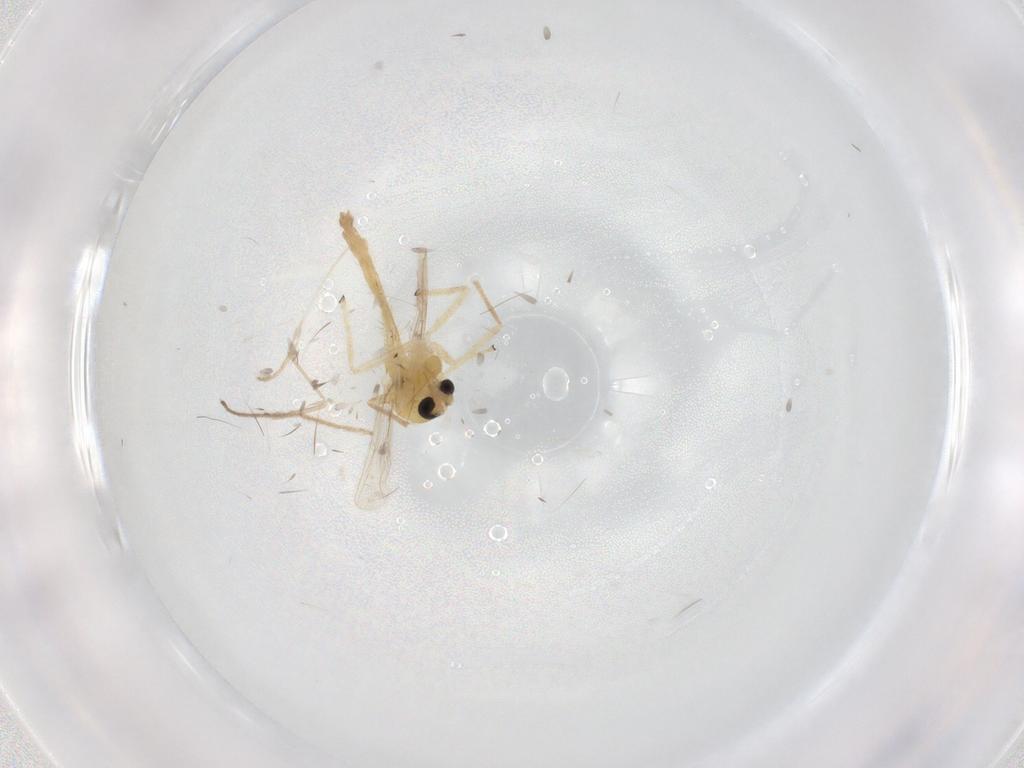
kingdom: Animalia
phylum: Arthropoda
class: Insecta
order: Diptera
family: Chironomidae
